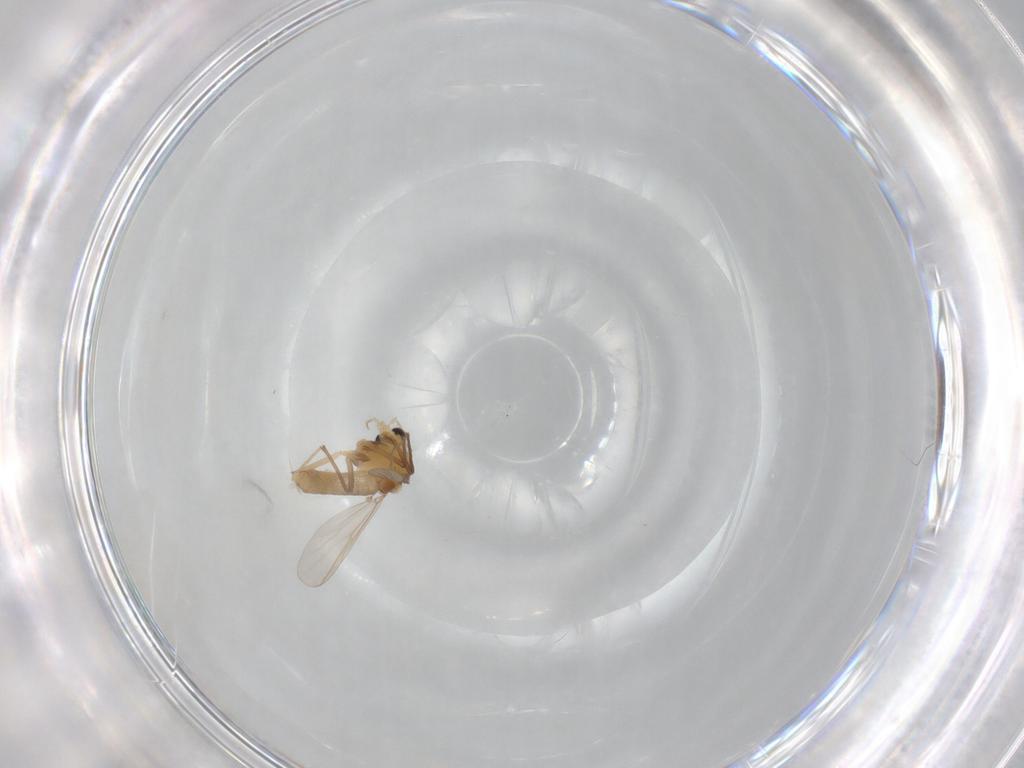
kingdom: Animalia
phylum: Arthropoda
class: Insecta
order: Diptera
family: Chironomidae
